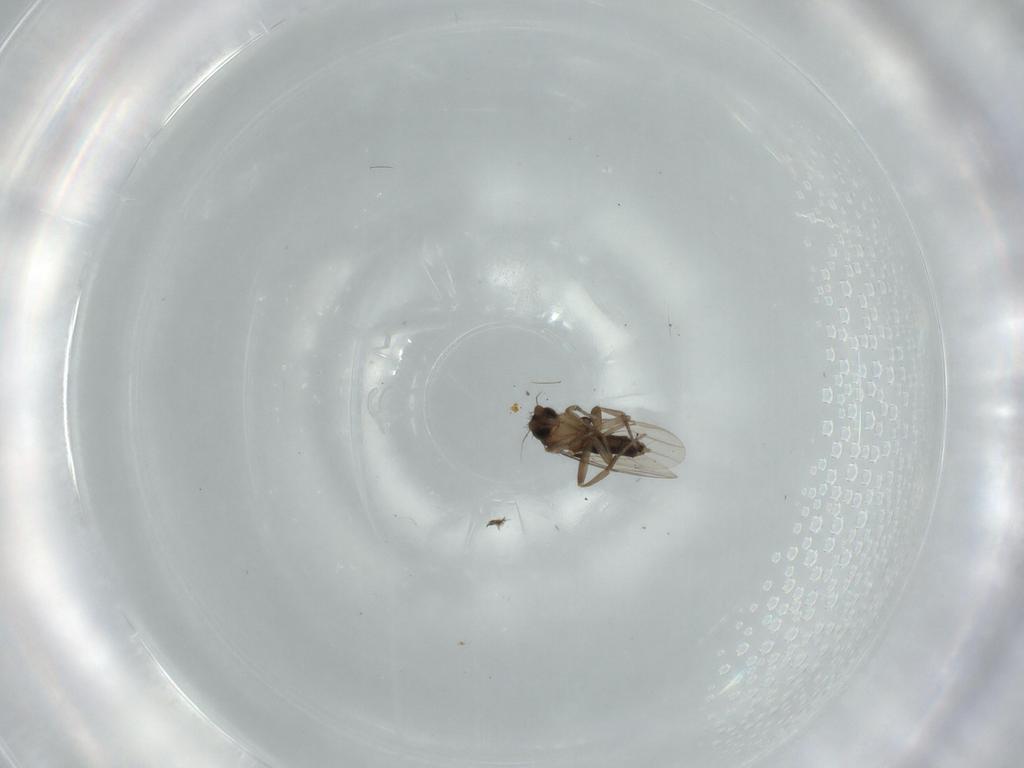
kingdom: Animalia
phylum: Arthropoda
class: Insecta
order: Diptera
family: Phoridae
